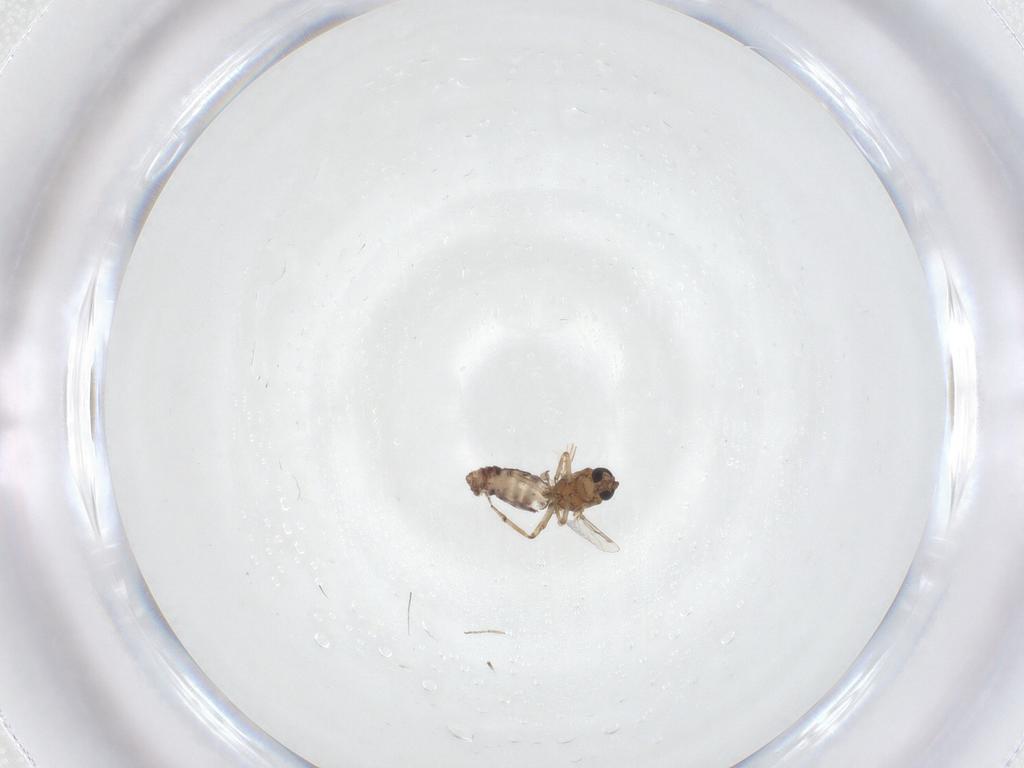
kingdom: Animalia
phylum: Arthropoda
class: Insecta
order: Diptera
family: Ceratopogonidae
